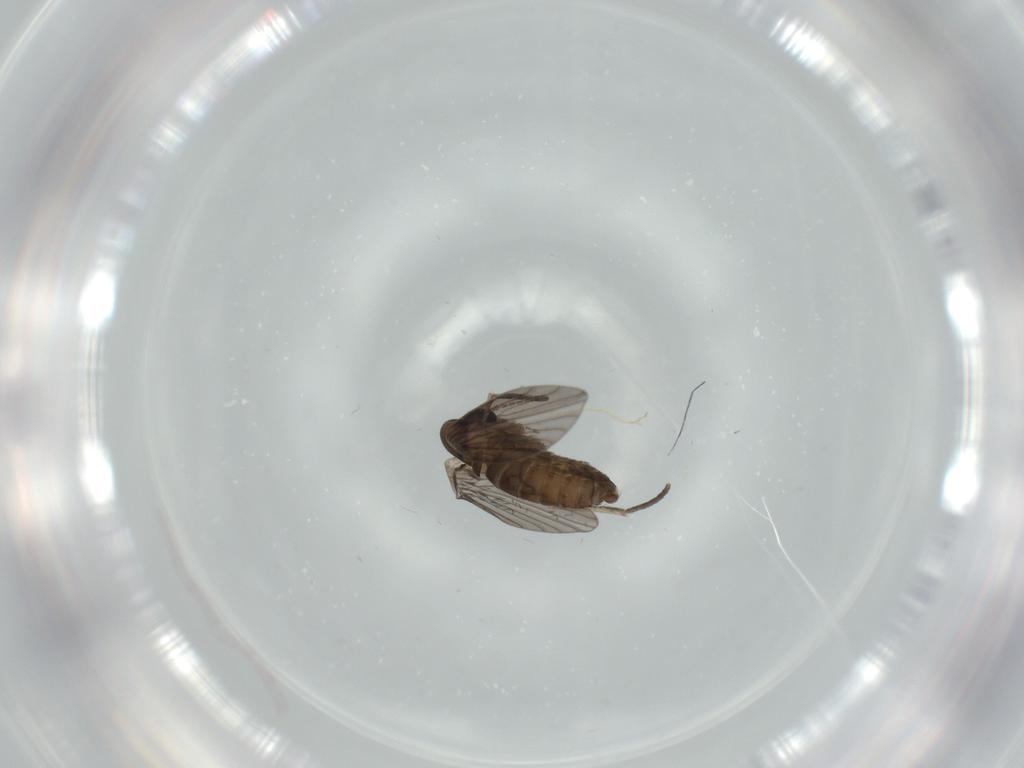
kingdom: Animalia
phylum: Arthropoda
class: Insecta
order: Diptera
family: Psychodidae
